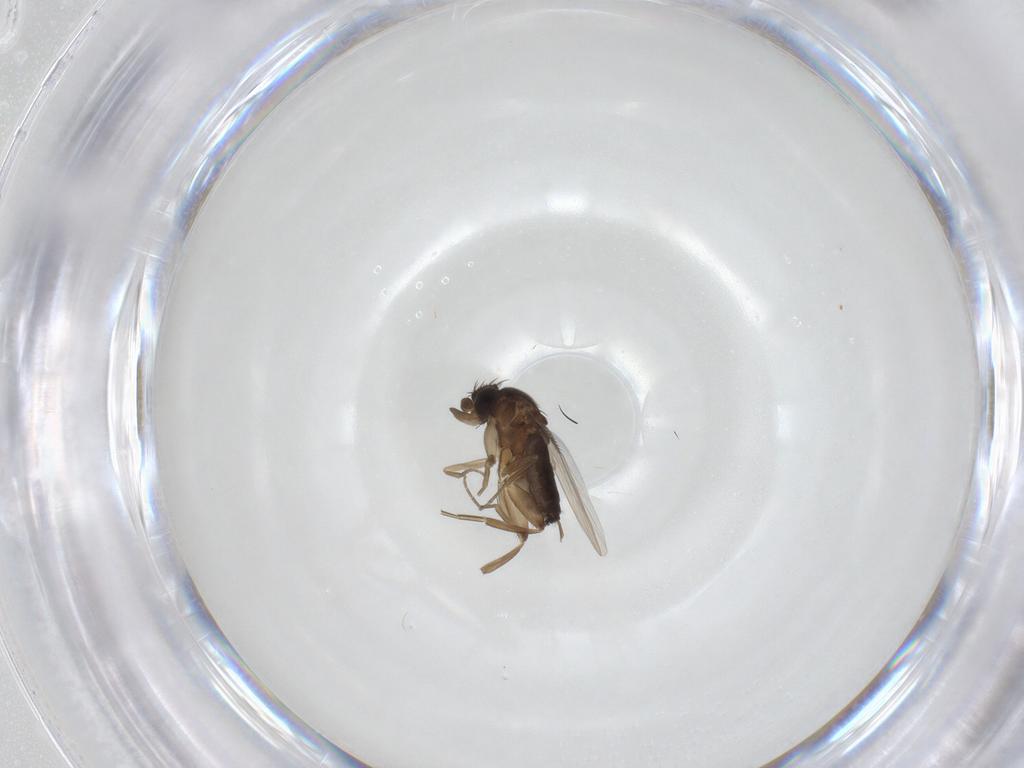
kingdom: Animalia
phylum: Arthropoda
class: Insecta
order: Diptera
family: Phoridae
